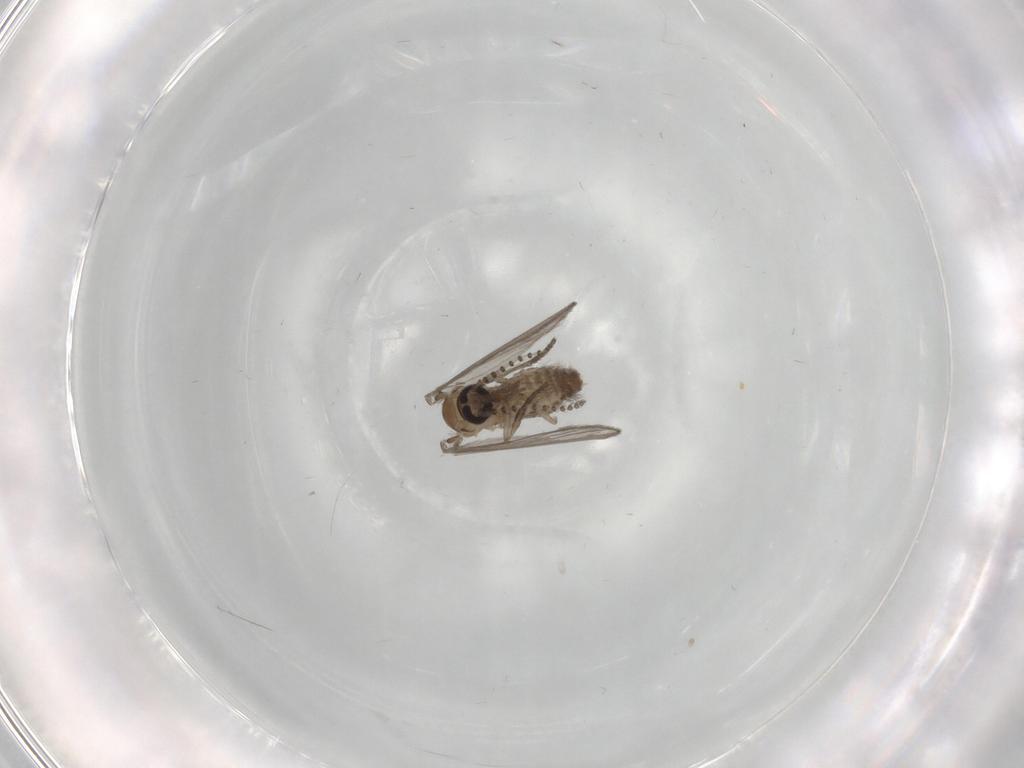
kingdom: Animalia
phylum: Arthropoda
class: Insecta
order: Diptera
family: Psychodidae
